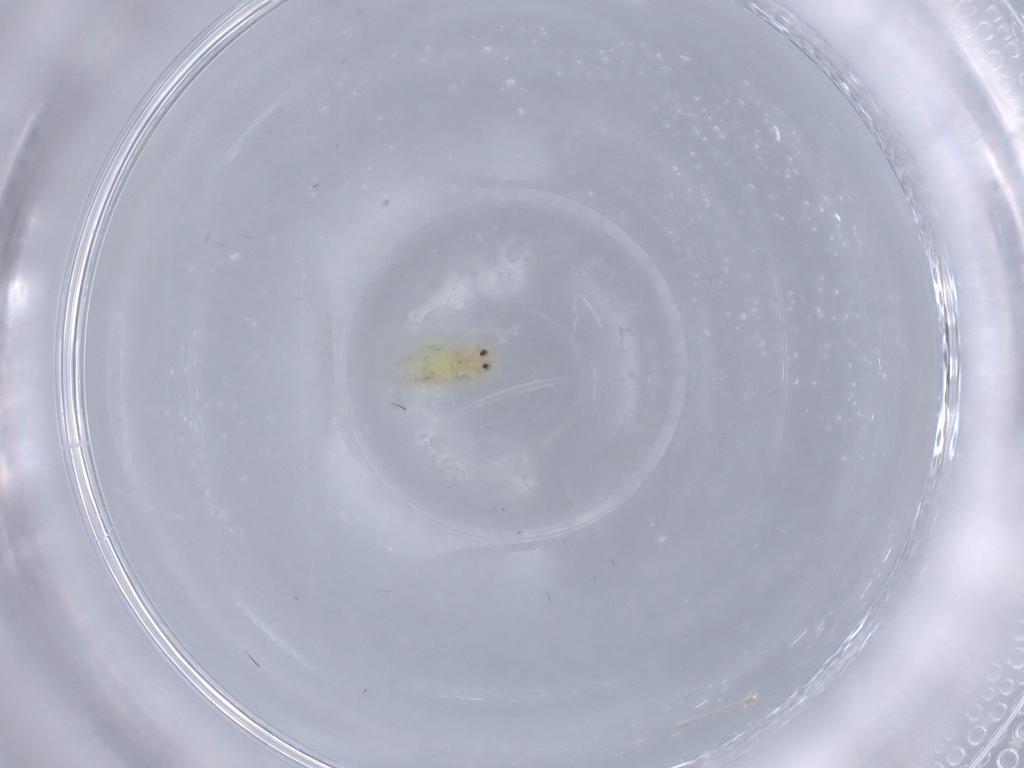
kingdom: Animalia
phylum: Arthropoda
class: Insecta
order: Hemiptera
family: Aleyrodidae
